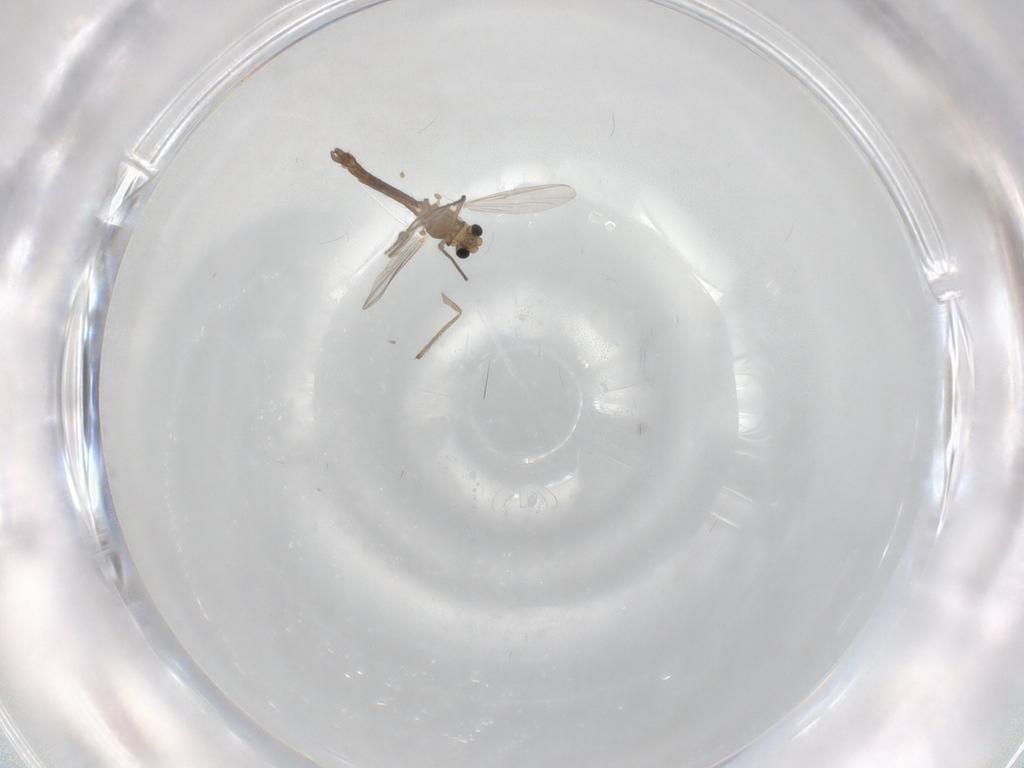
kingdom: Animalia
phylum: Arthropoda
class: Insecta
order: Diptera
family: Chironomidae
